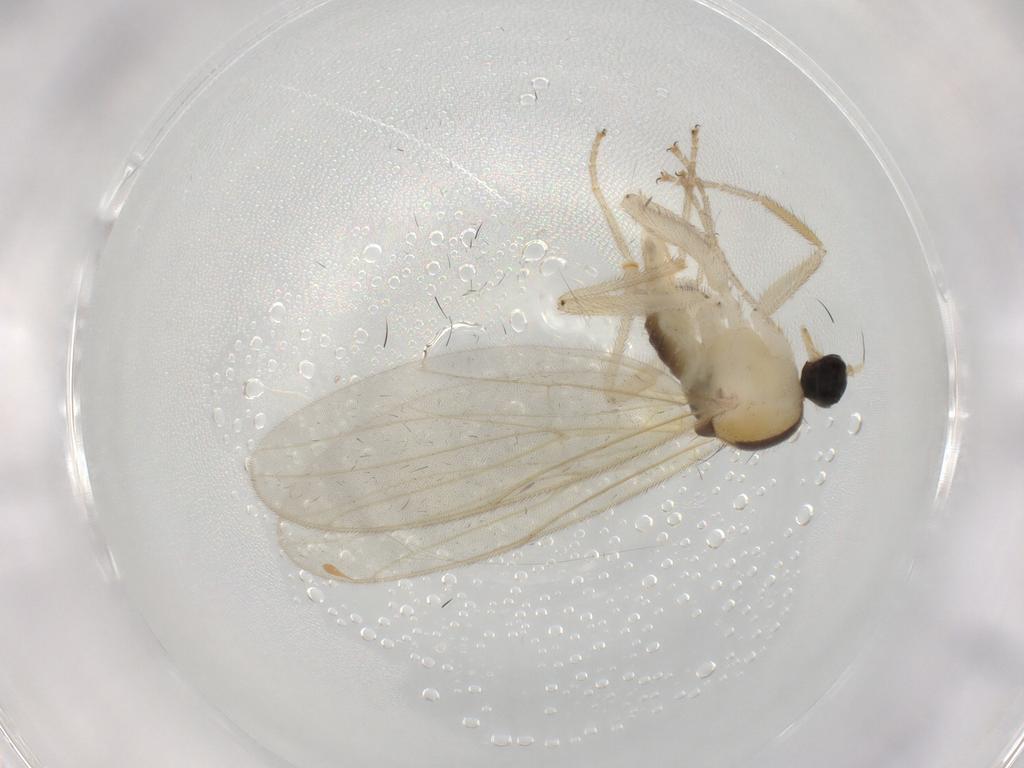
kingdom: Animalia
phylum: Arthropoda
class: Insecta
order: Diptera
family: Hybotidae
